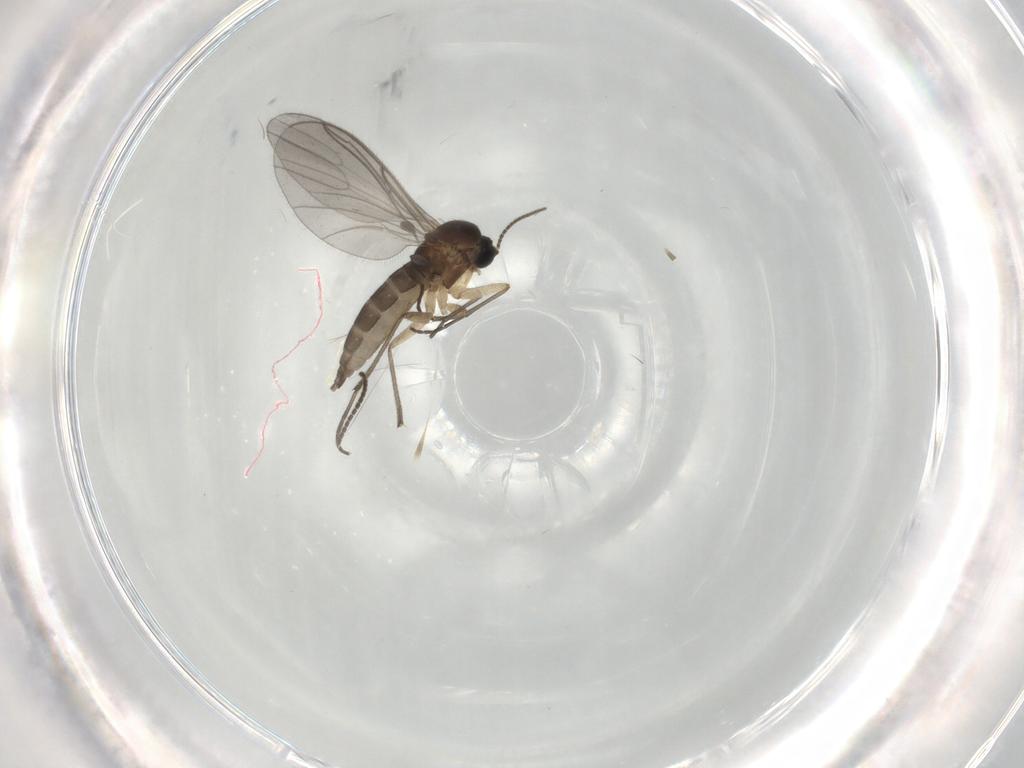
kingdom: Animalia
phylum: Arthropoda
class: Insecta
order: Diptera
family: Sciaridae
